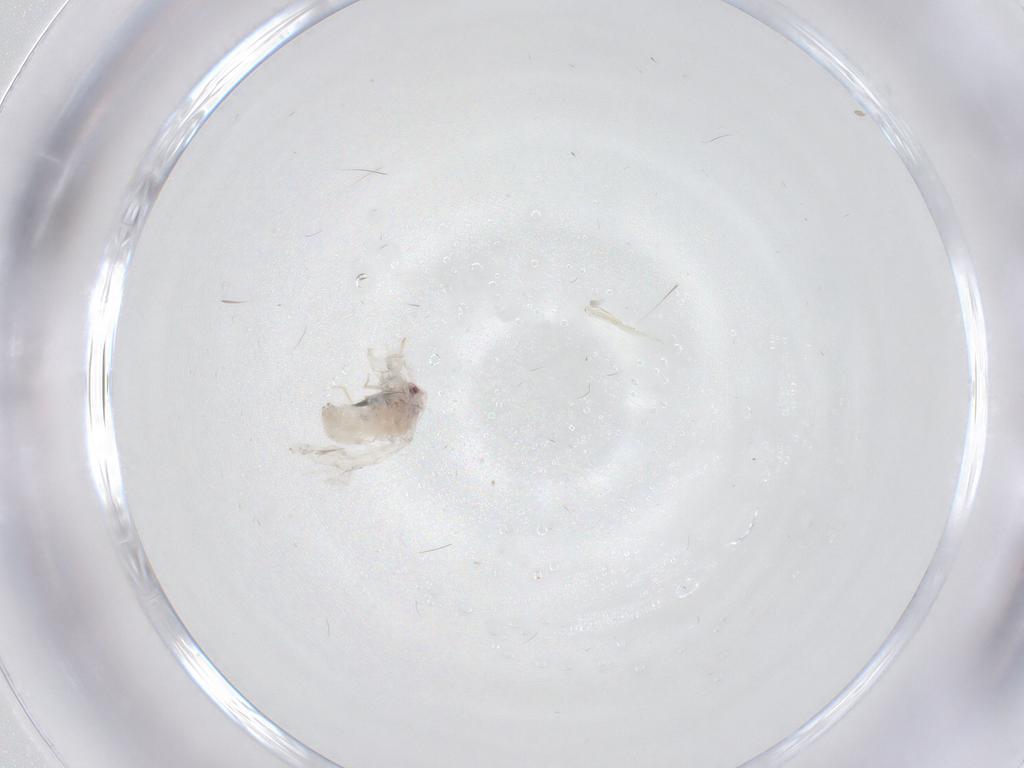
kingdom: Animalia
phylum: Arthropoda
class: Insecta
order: Hemiptera
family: Aleyrodidae
